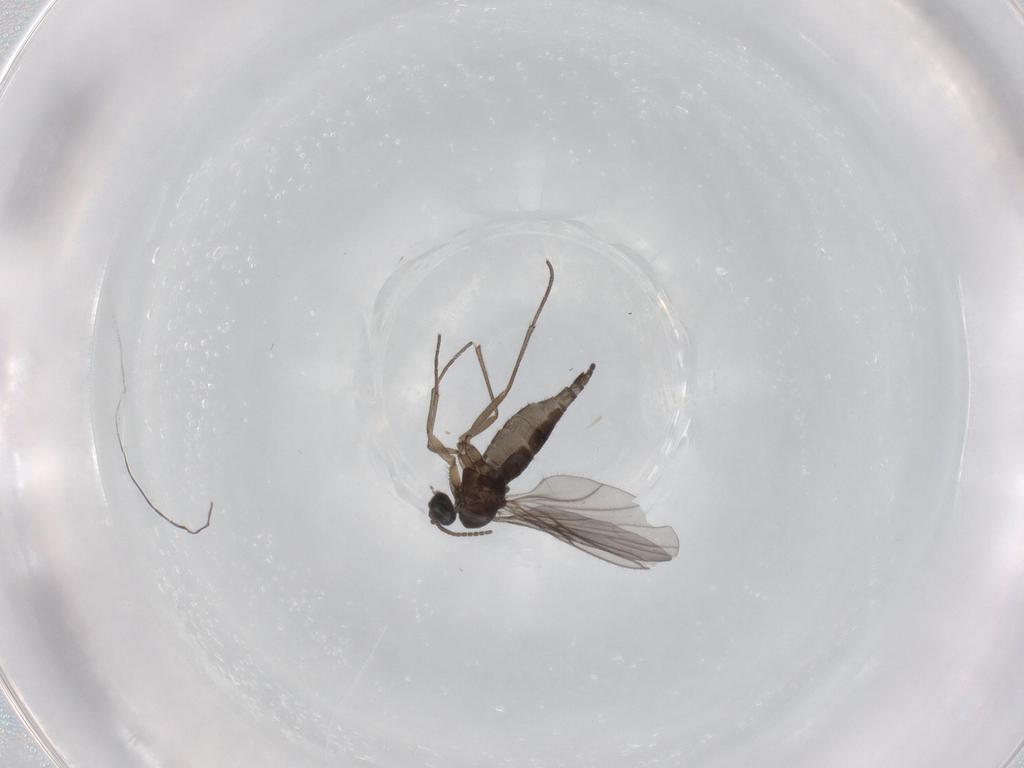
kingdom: Animalia
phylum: Arthropoda
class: Insecta
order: Diptera
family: Sciaridae
